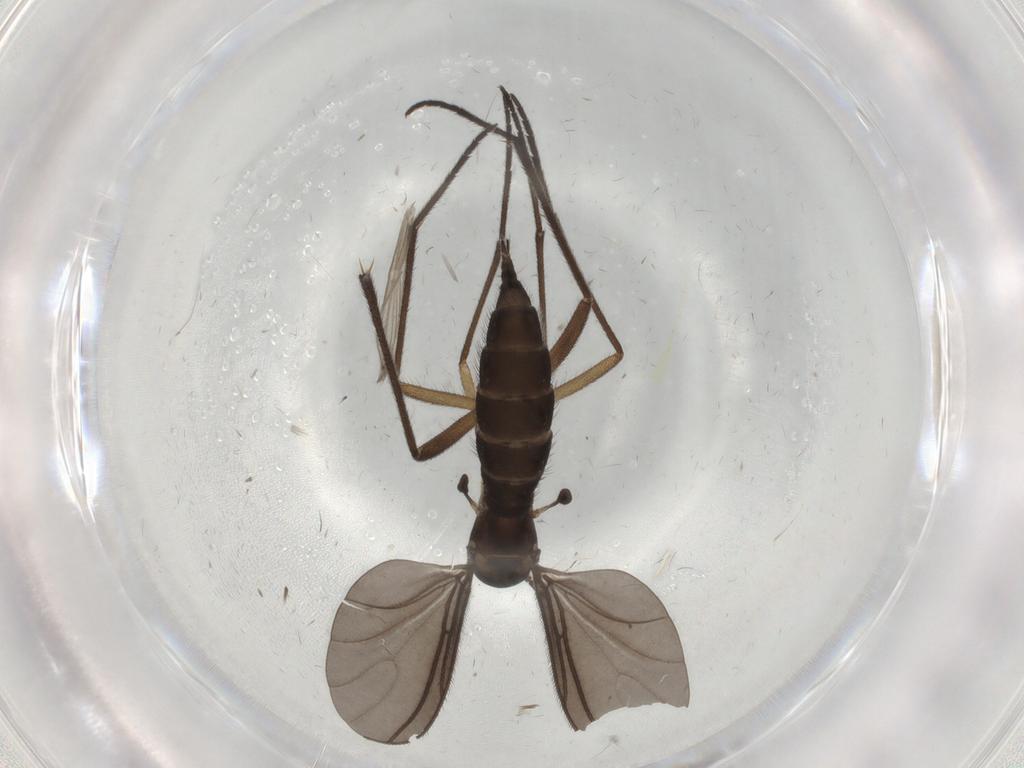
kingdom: Animalia
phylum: Arthropoda
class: Insecta
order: Diptera
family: Sciaridae
